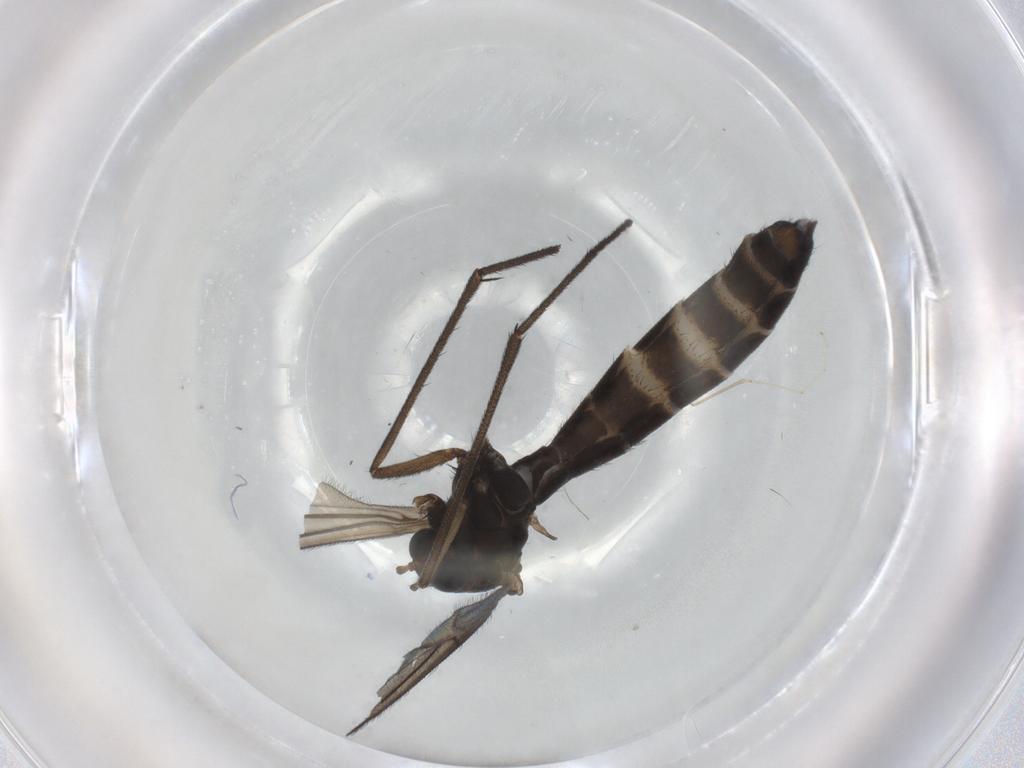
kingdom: Animalia
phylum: Arthropoda
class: Insecta
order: Diptera
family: Ditomyiidae
